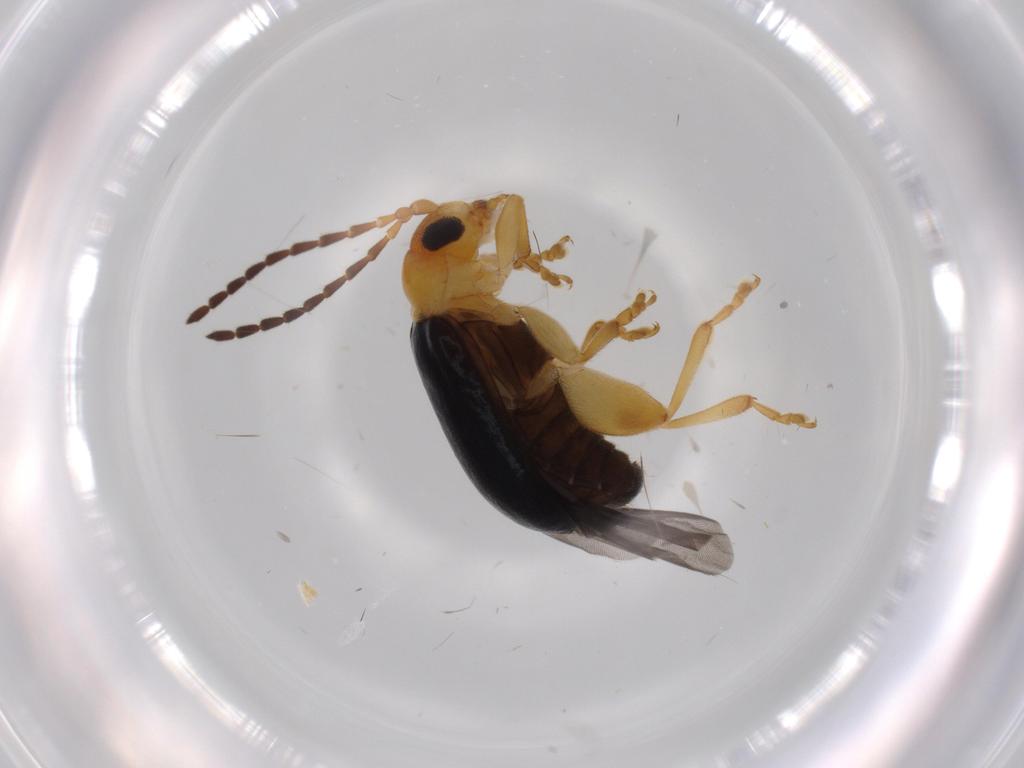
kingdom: Animalia
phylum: Arthropoda
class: Insecta
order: Coleoptera
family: Chrysomelidae
